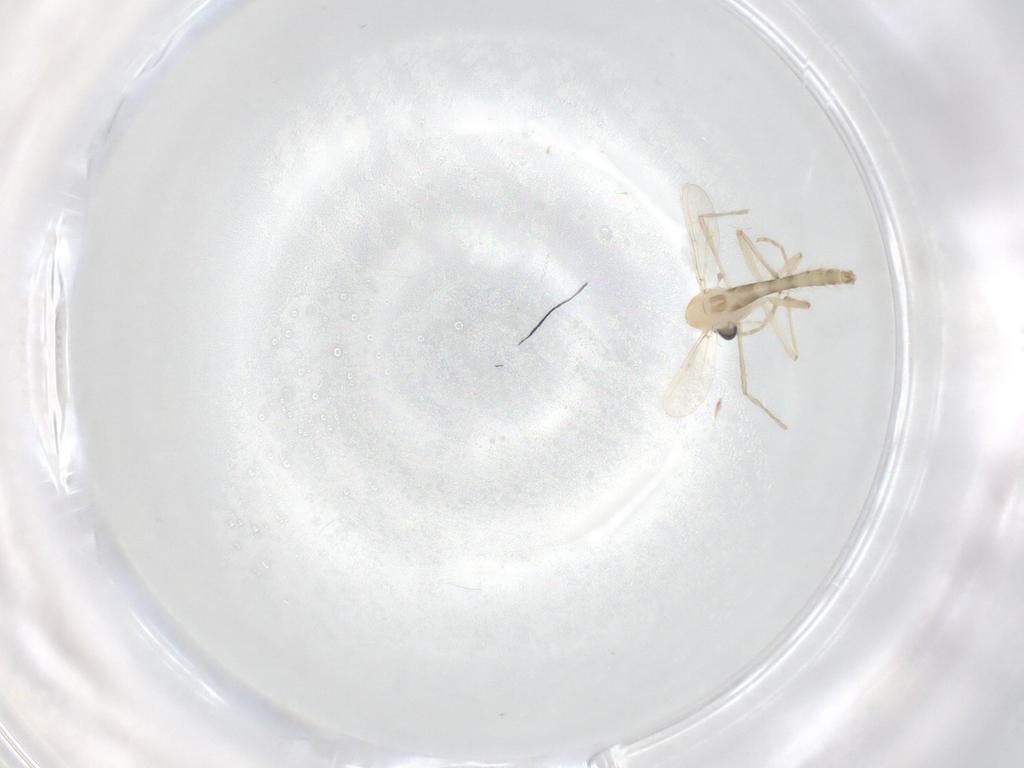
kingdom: Animalia
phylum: Arthropoda
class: Insecta
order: Diptera
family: Chironomidae
